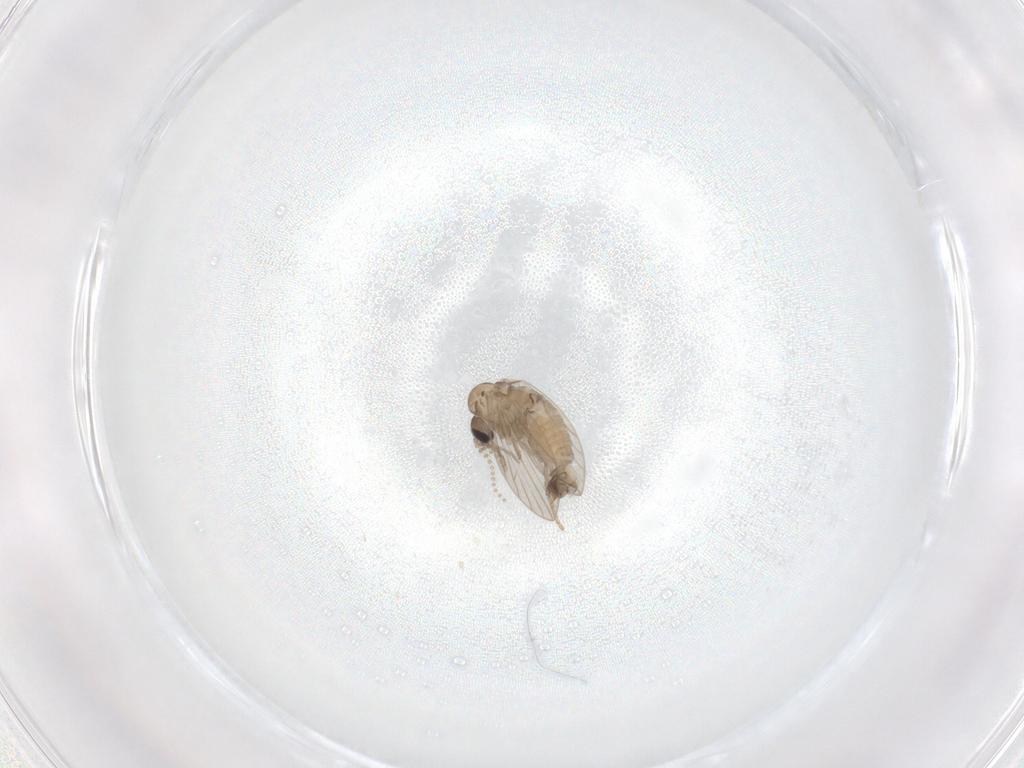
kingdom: Animalia
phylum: Arthropoda
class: Insecta
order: Diptera
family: Psychodidae
